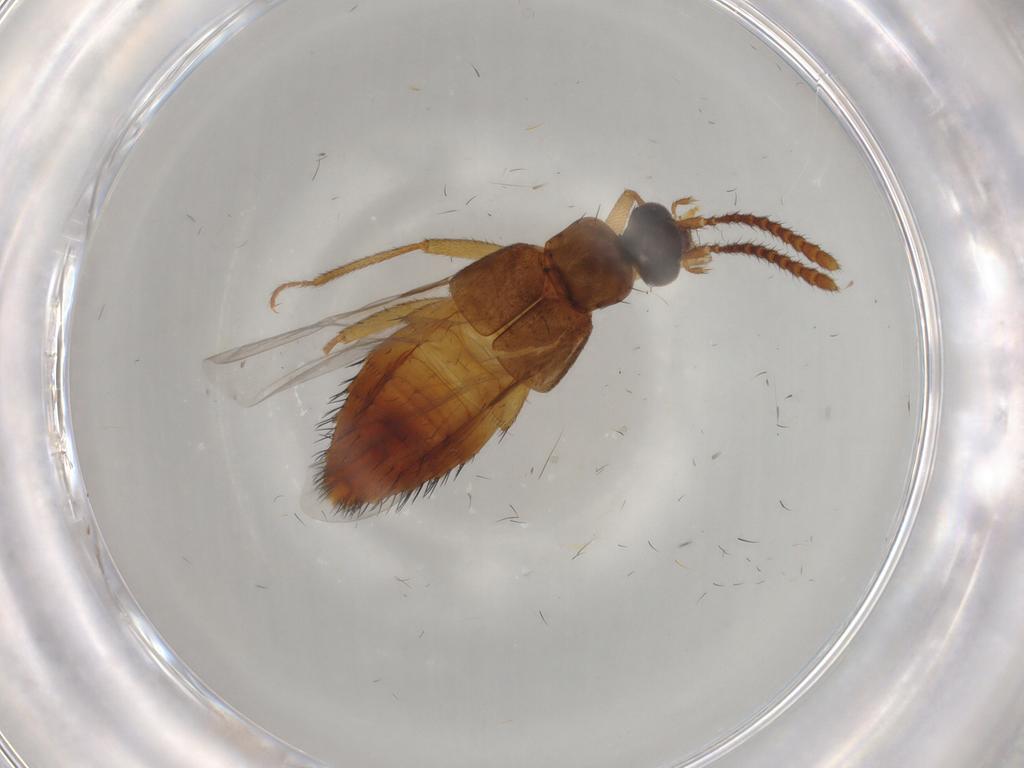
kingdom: Animalia
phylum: Arthropoda
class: Insecta
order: Coleoptera
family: Staphylinidae
